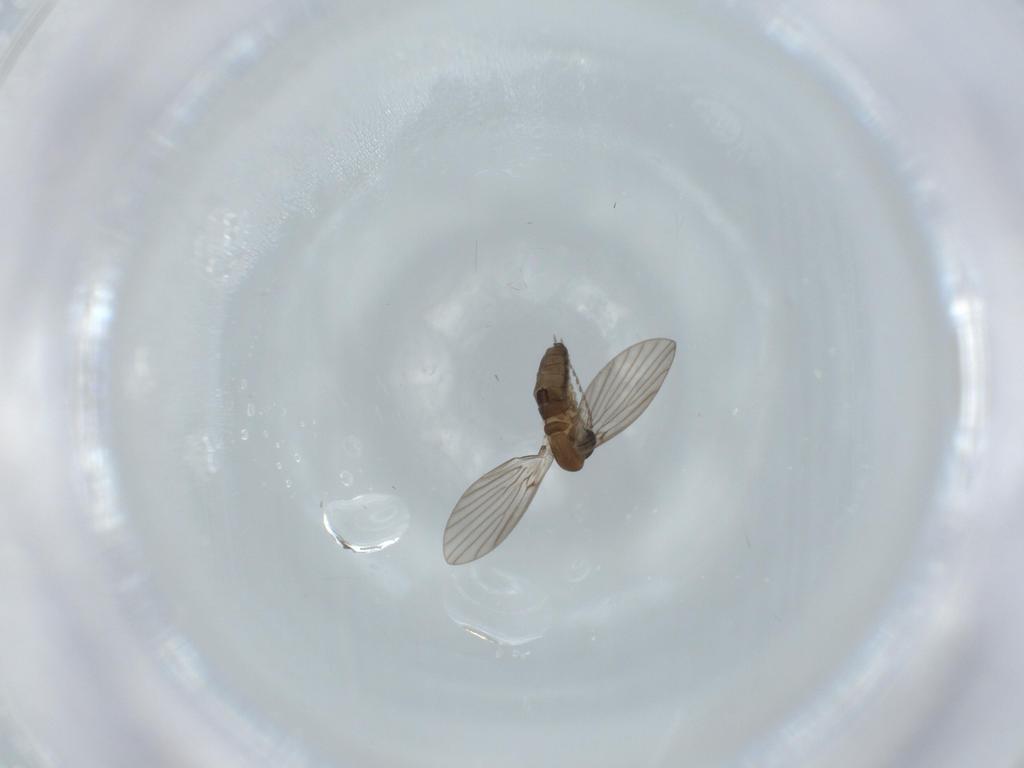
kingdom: Animalia
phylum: Arthropoda
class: Insecta
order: Diptera
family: Psychodidae
